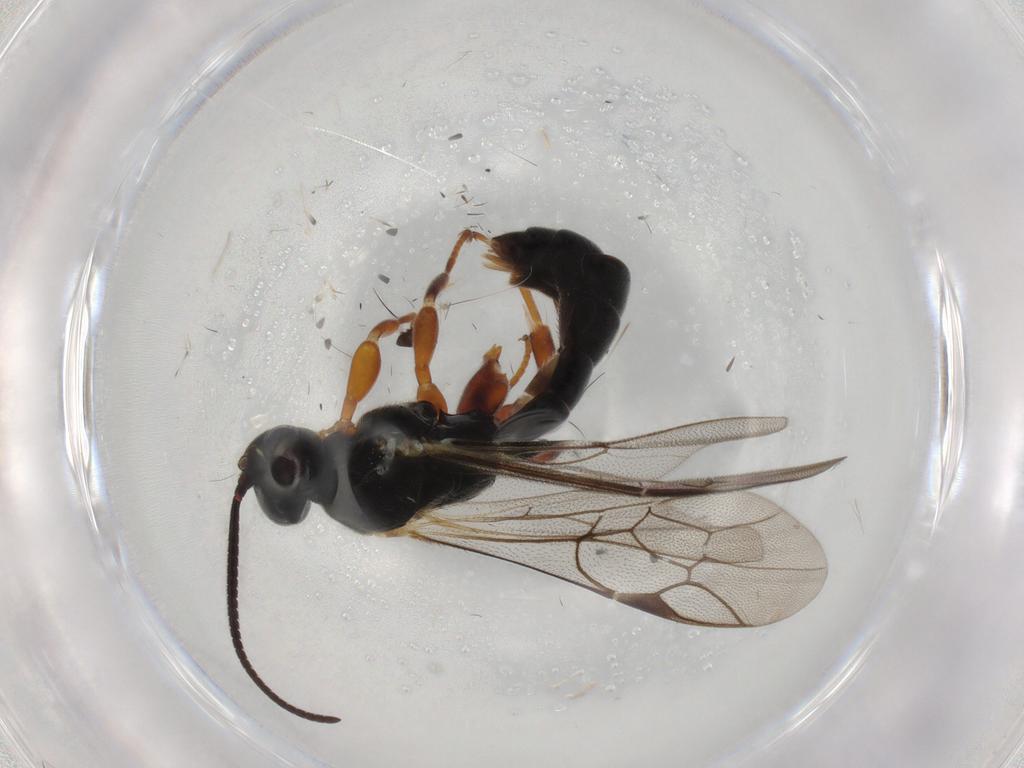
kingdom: Animalia
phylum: Arthropoda
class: Insecta
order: Hymenoptera
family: Ichneumonidae
